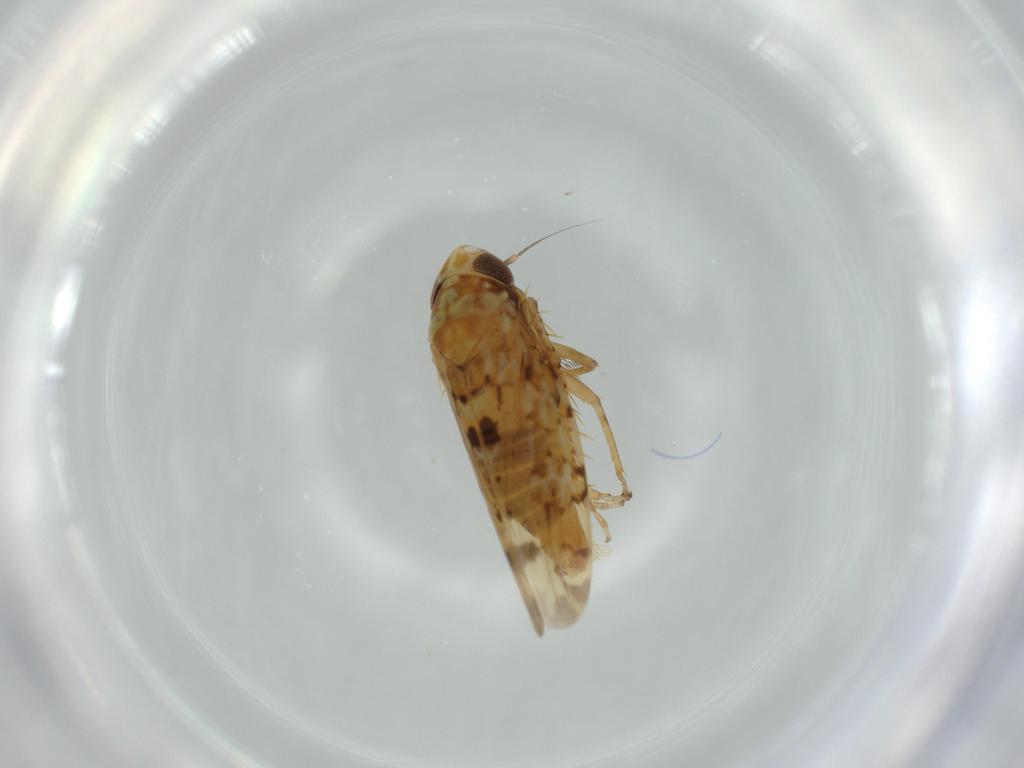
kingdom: Animalia
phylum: Arthropoda
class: Insecta
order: Hemiptera
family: Cicadellidae
